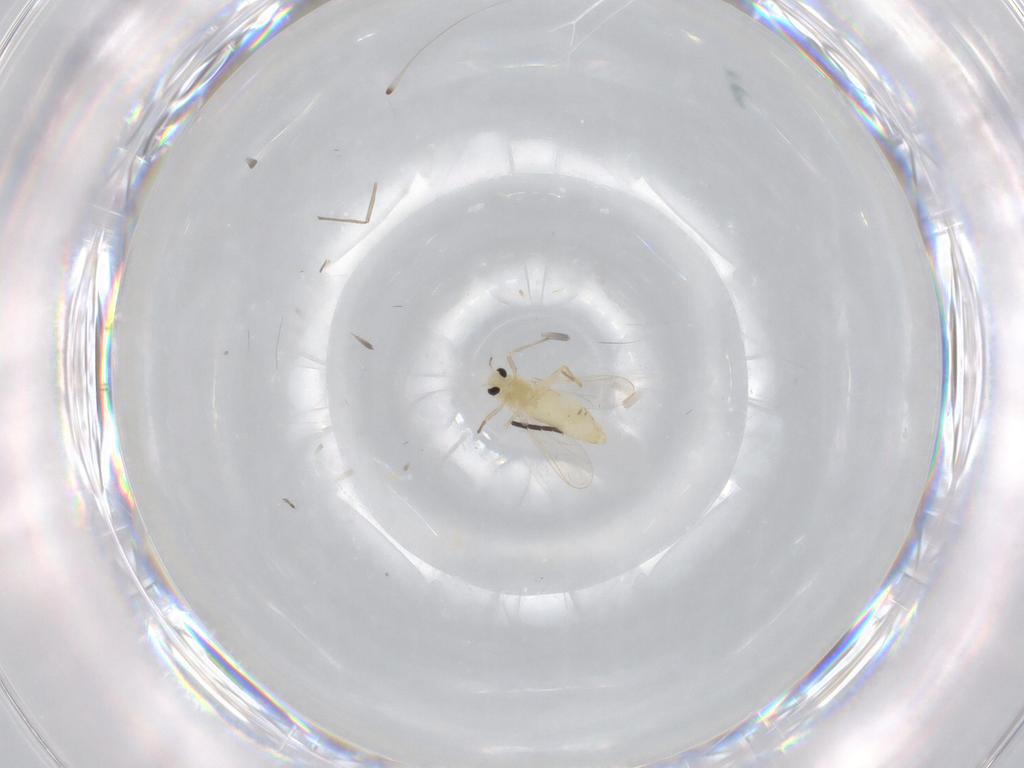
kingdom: Animalia
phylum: Arthropoda
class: Insecta
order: Diptera
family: Chironomidae
